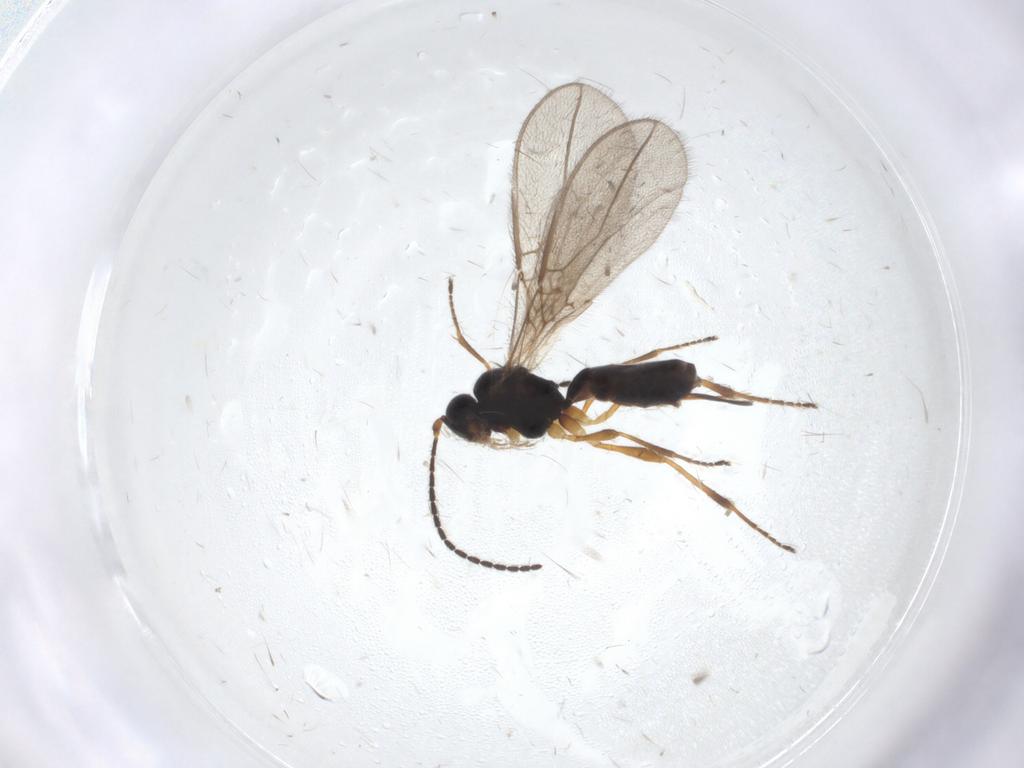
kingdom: Animalia
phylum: Arthropoda
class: Insecta
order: Hymenoptera
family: Braconidae
